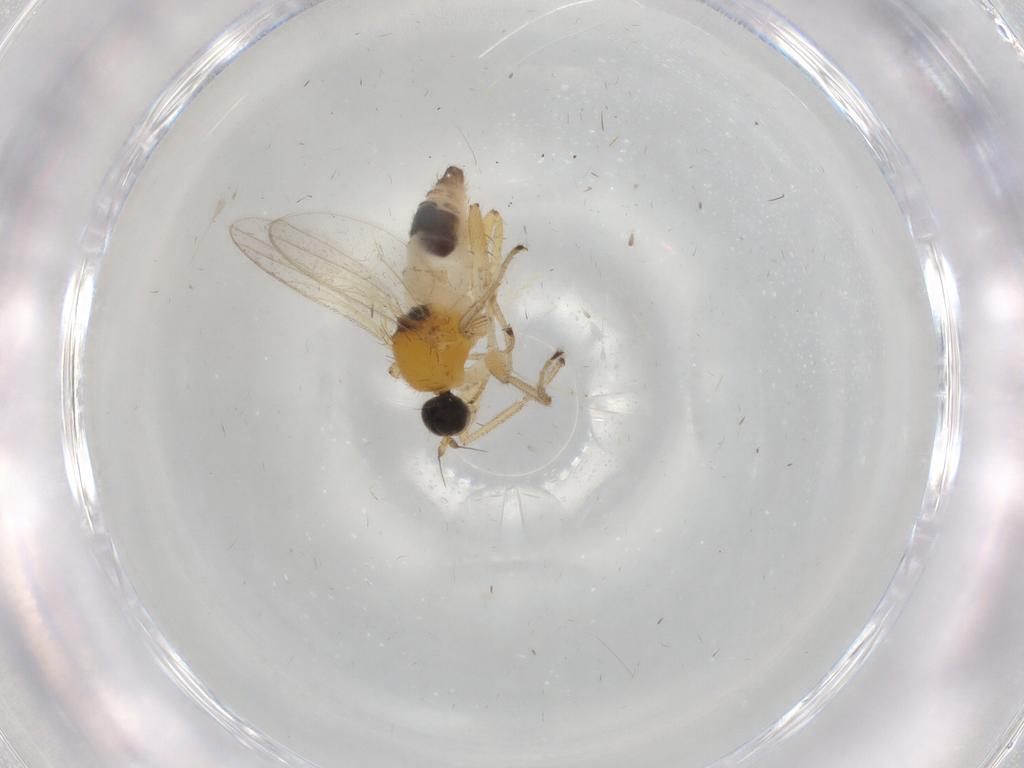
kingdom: Animalia
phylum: Arthropoda
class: Insecta
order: Diptera
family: Hybotidae
